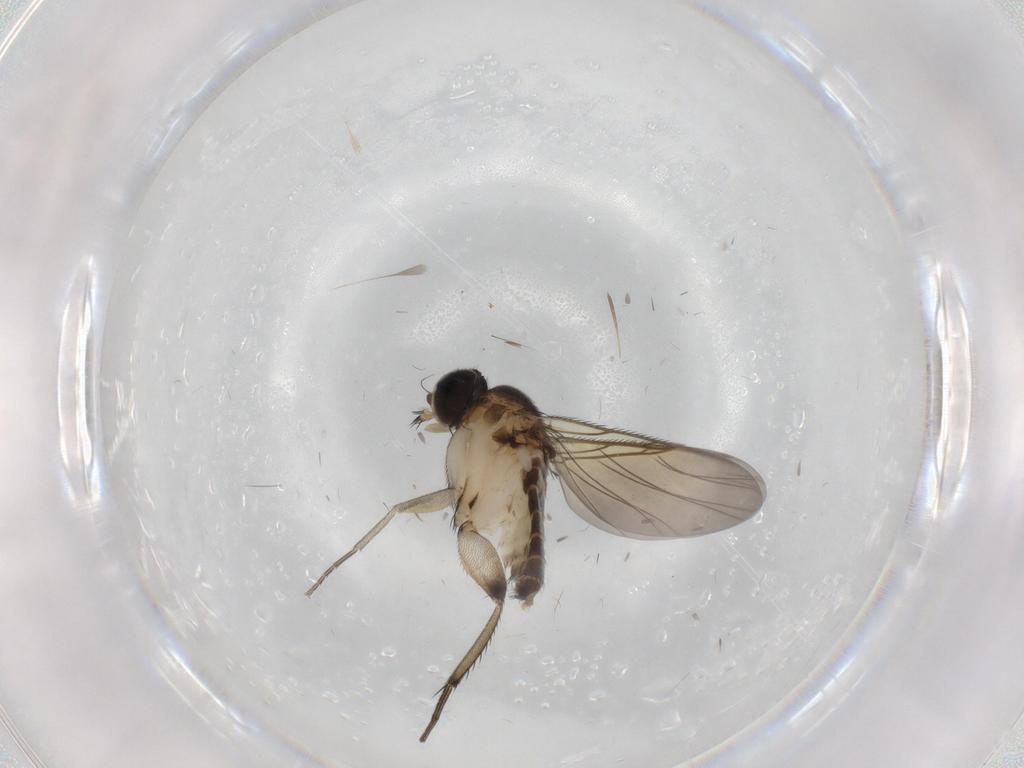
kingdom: Animalia
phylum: Arthropoda
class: Insecta
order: Diptera
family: Phoridae
